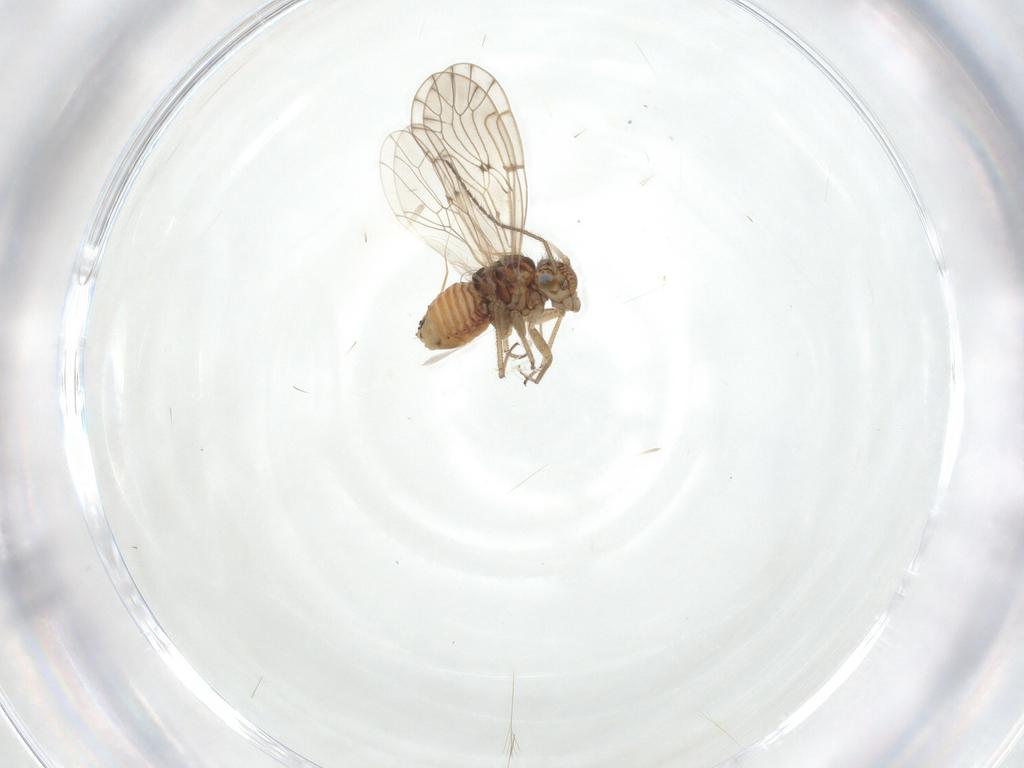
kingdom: Animalia
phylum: Arthropoda
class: Insecta
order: Psocodea
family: Ectopsocidae
